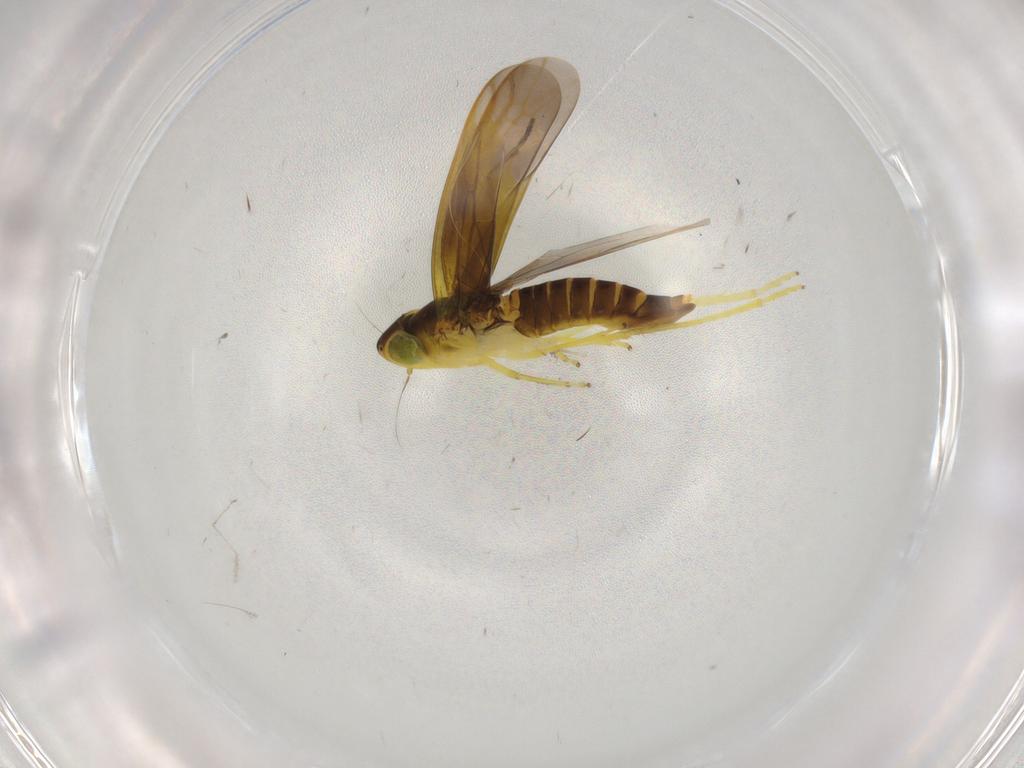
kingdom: Animalia
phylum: Arthropoda
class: Insecta
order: Hemiptera
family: Cicadellidae
